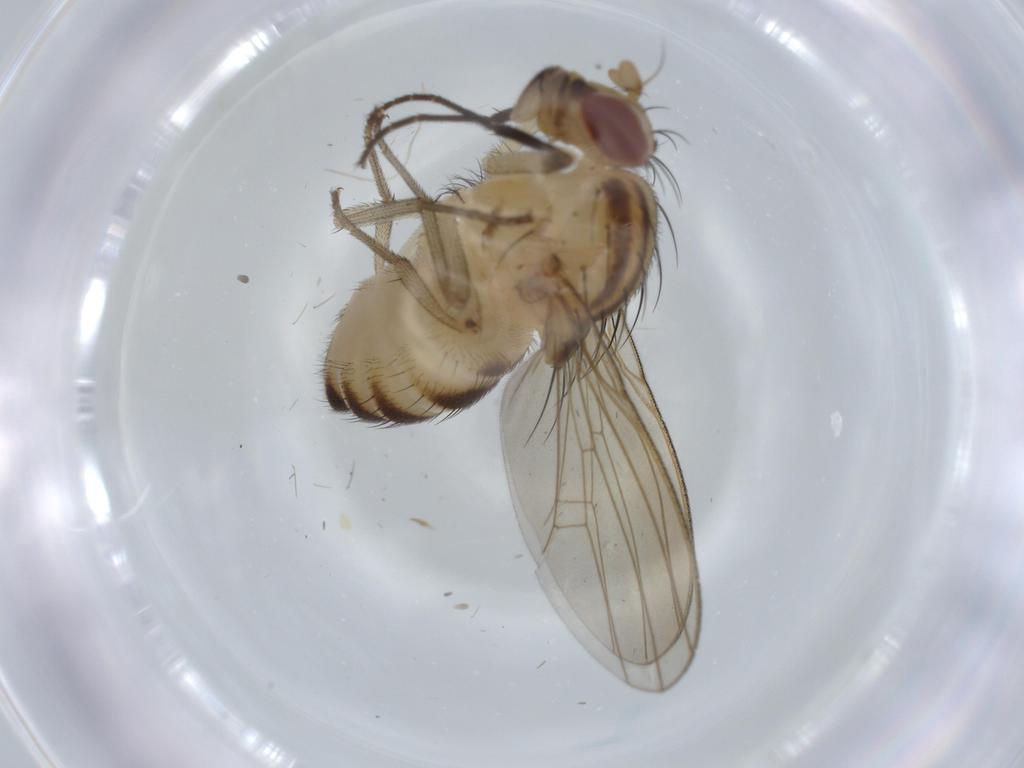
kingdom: Animalia
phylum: Arthropoda
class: Insecta
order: Diptera
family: Lauxaniidae
